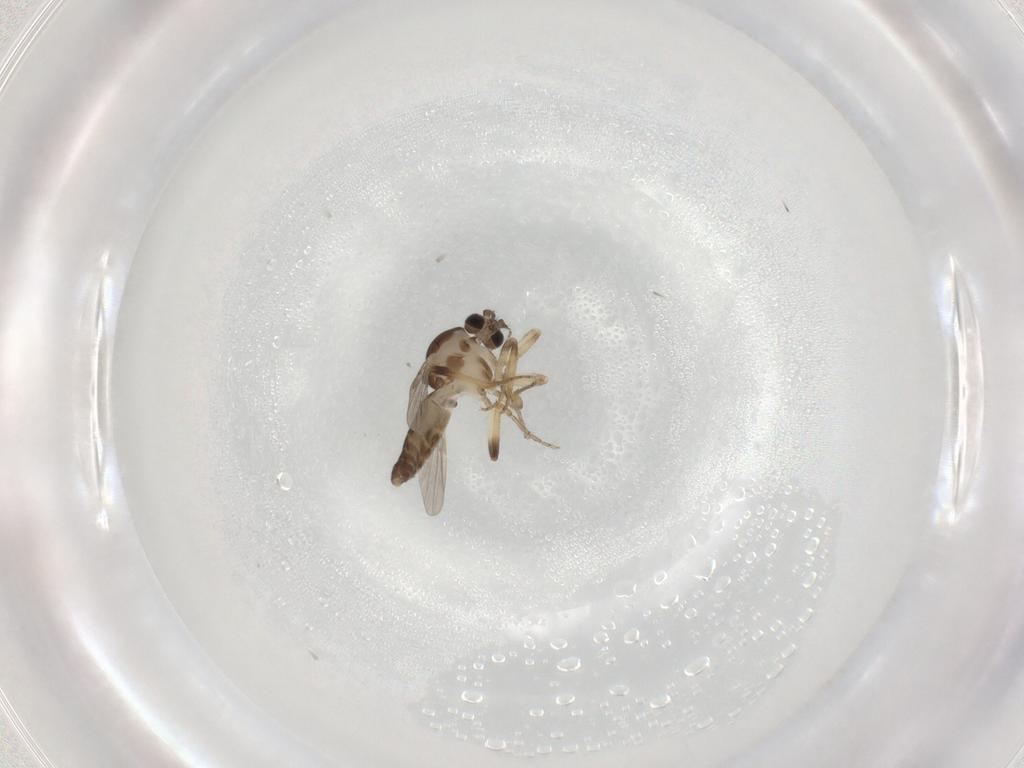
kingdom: Animalia
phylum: Arthropoda
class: Insecta
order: Diptera
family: Ceratopogonidae
